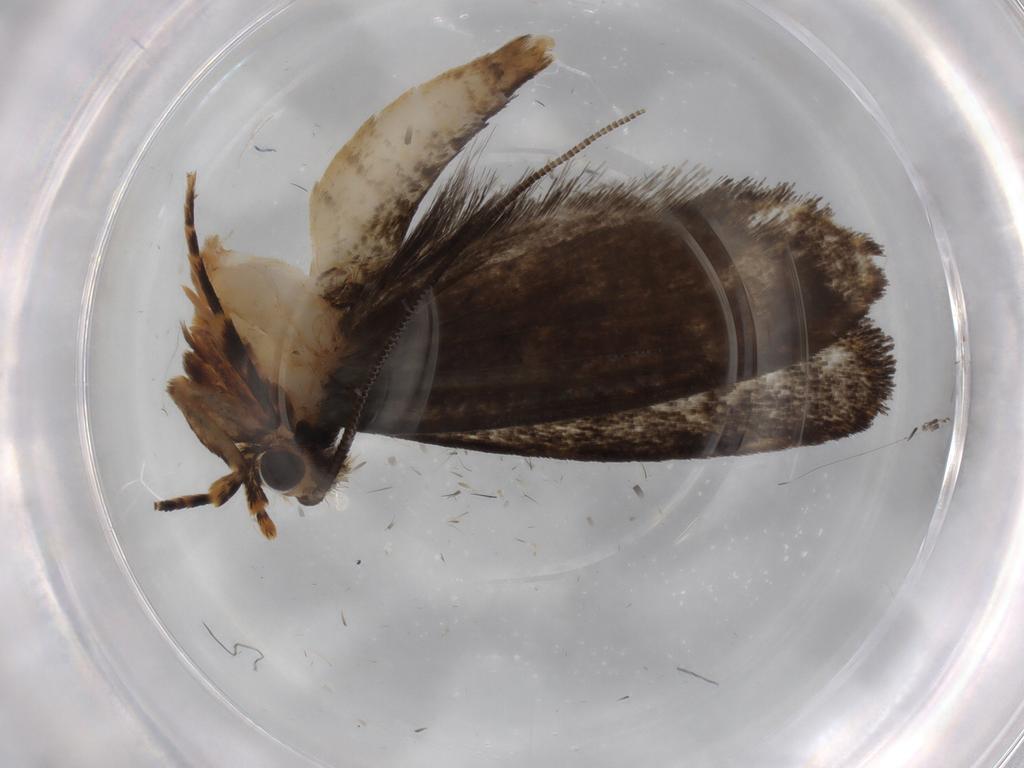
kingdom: Animalia
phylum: Arthropoda
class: Insecta
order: Lepidoptera
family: Tineidae
